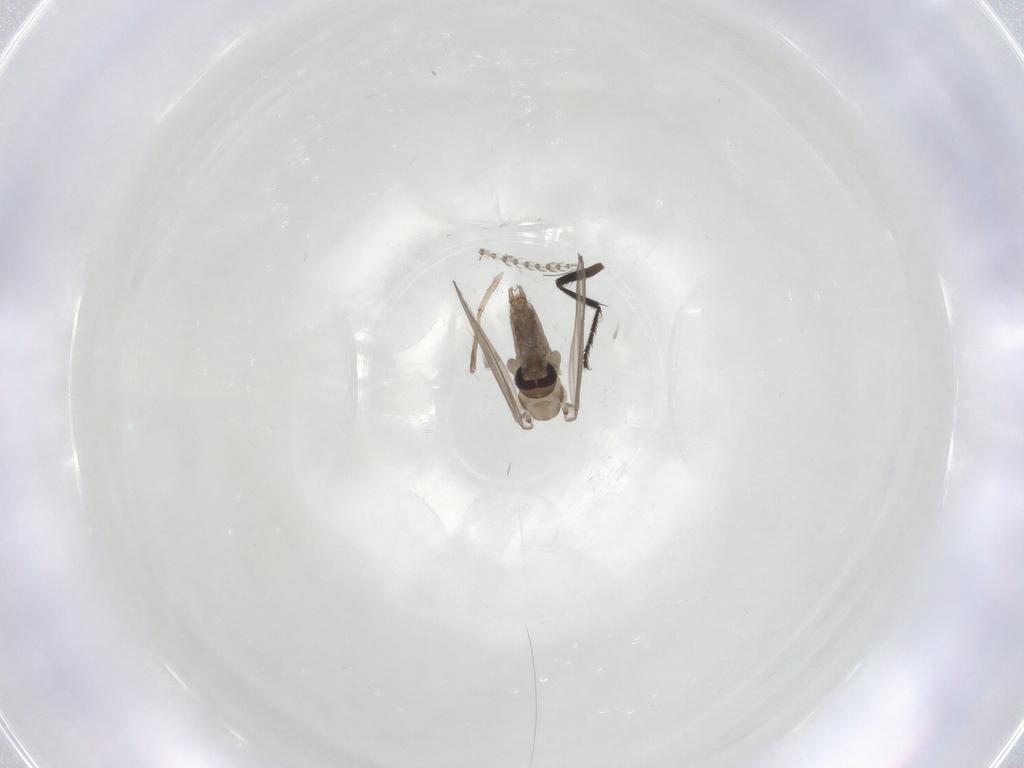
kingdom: Animalia
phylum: Arthropoda
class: Insecta
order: Diptera
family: Psychodidae
